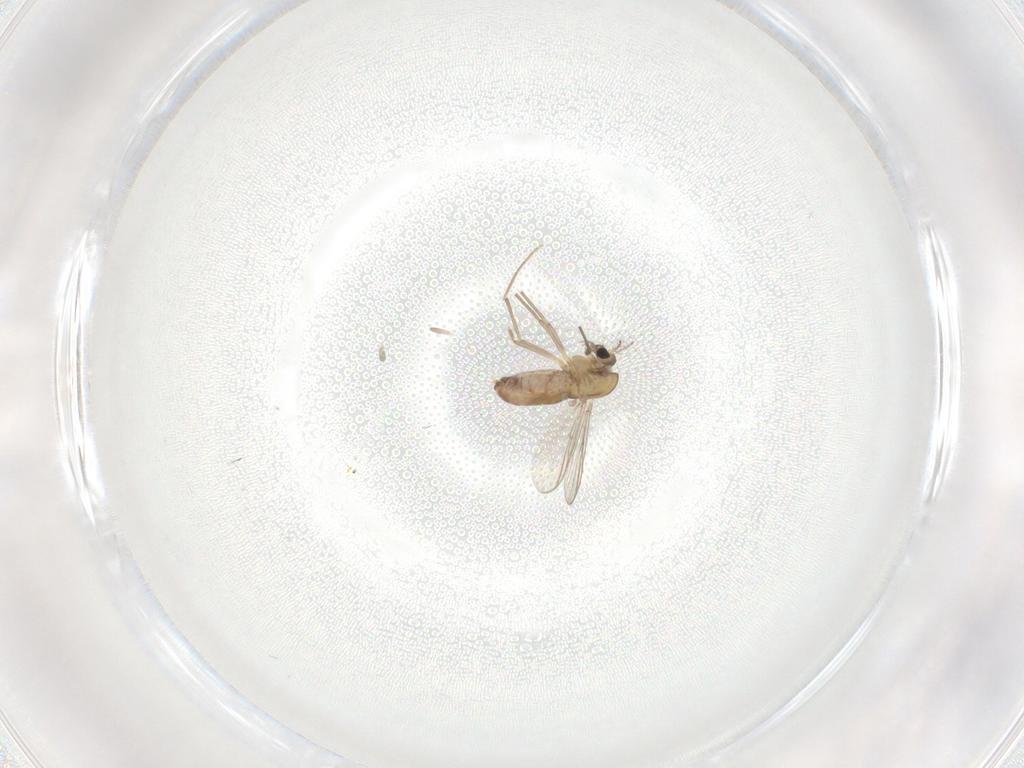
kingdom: Animalia
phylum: Arthropoda
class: Insecta
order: Diptera
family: Chironomidae
